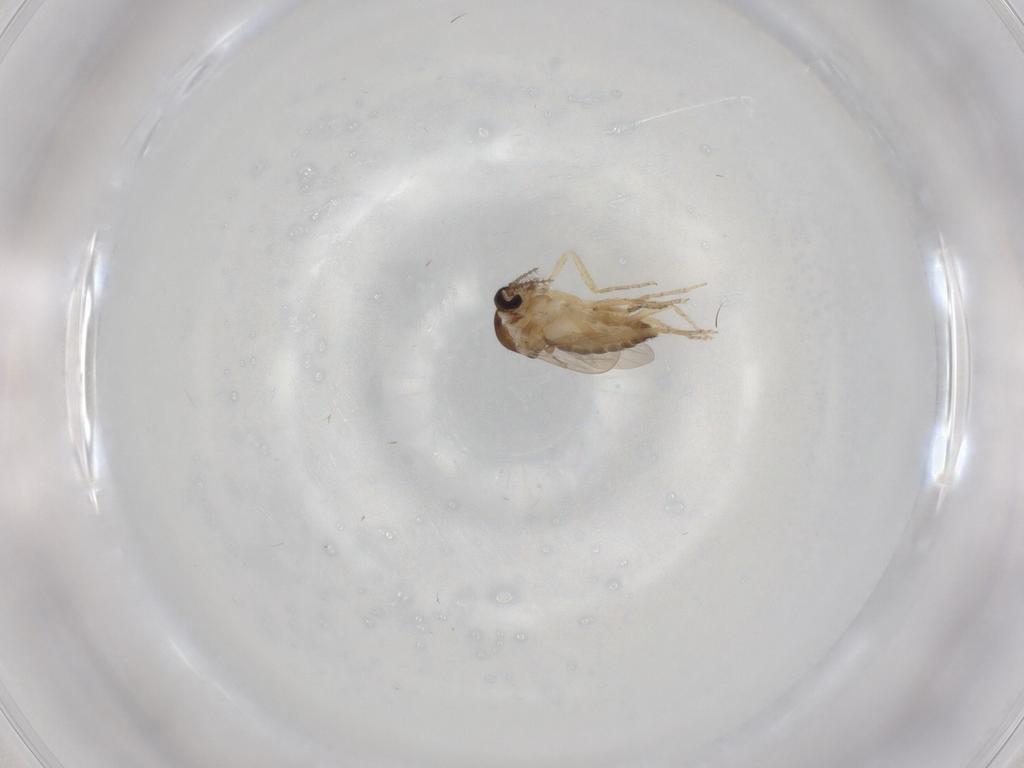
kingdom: Animalia
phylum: Arthropoda
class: Insecta
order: Diptera
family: Ceratopogonidae
